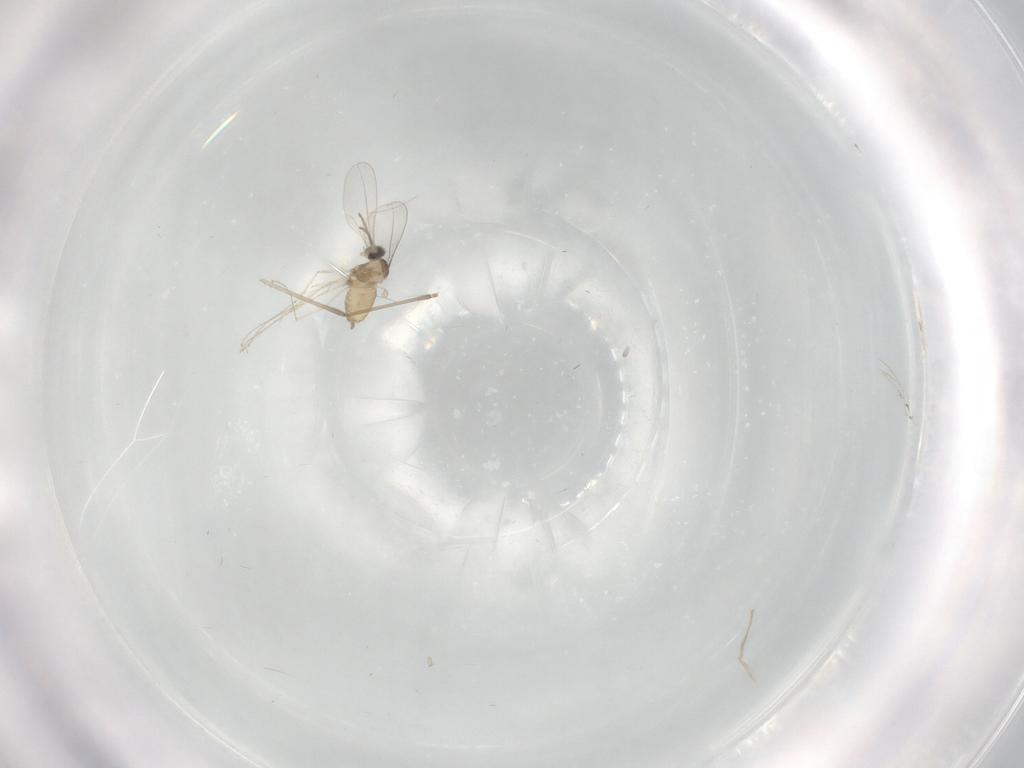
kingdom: Animalia
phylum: Arthropoda
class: Insecta
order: Diptera
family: Cecidomyiidae
